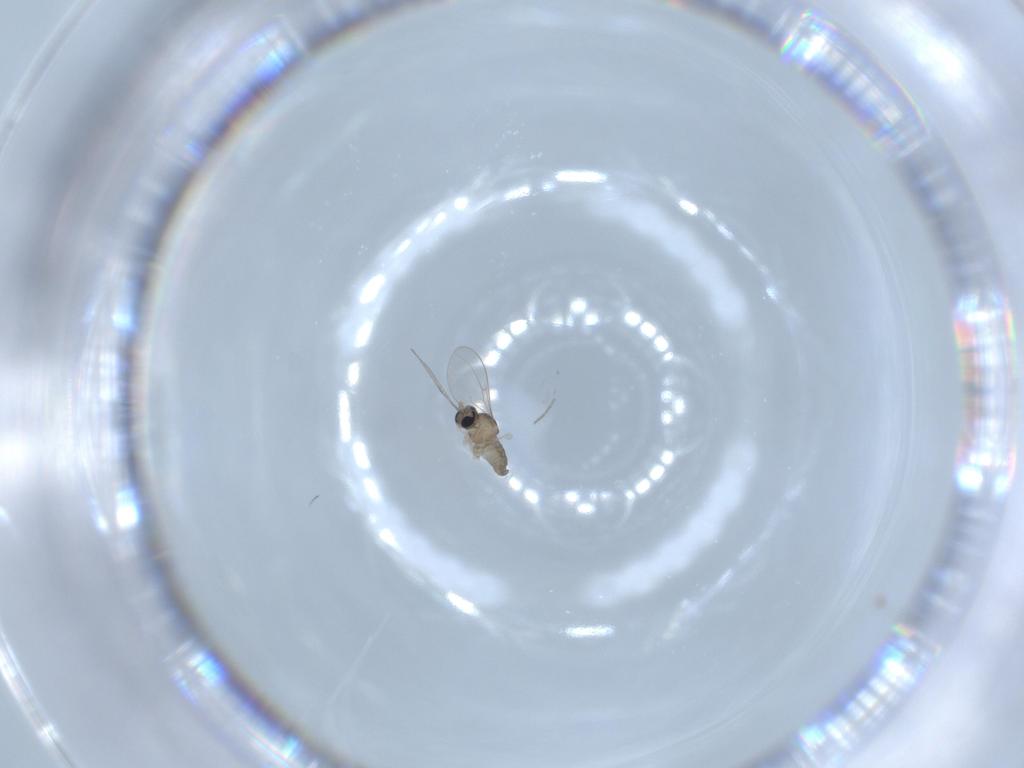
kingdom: Animalia
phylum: Arthropoda
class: Insecta
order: Diptera
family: Cecidomyiidae
